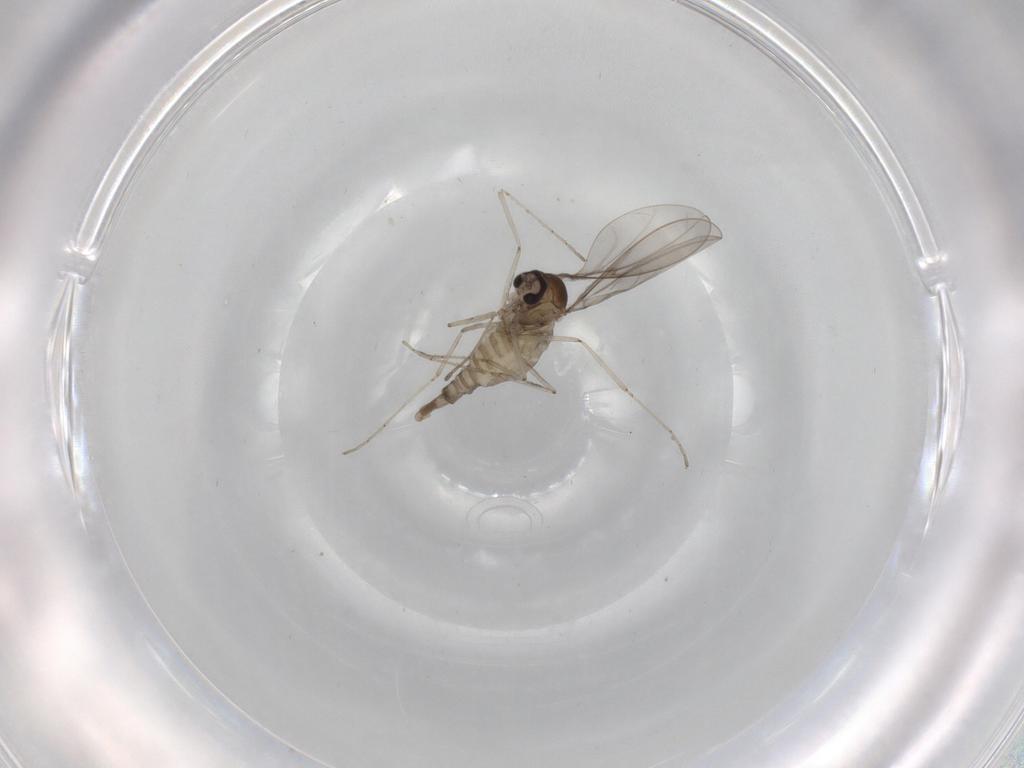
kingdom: Animalia
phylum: Arthropoda
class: Insecta
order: Diptera
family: Cecidomyiidae
